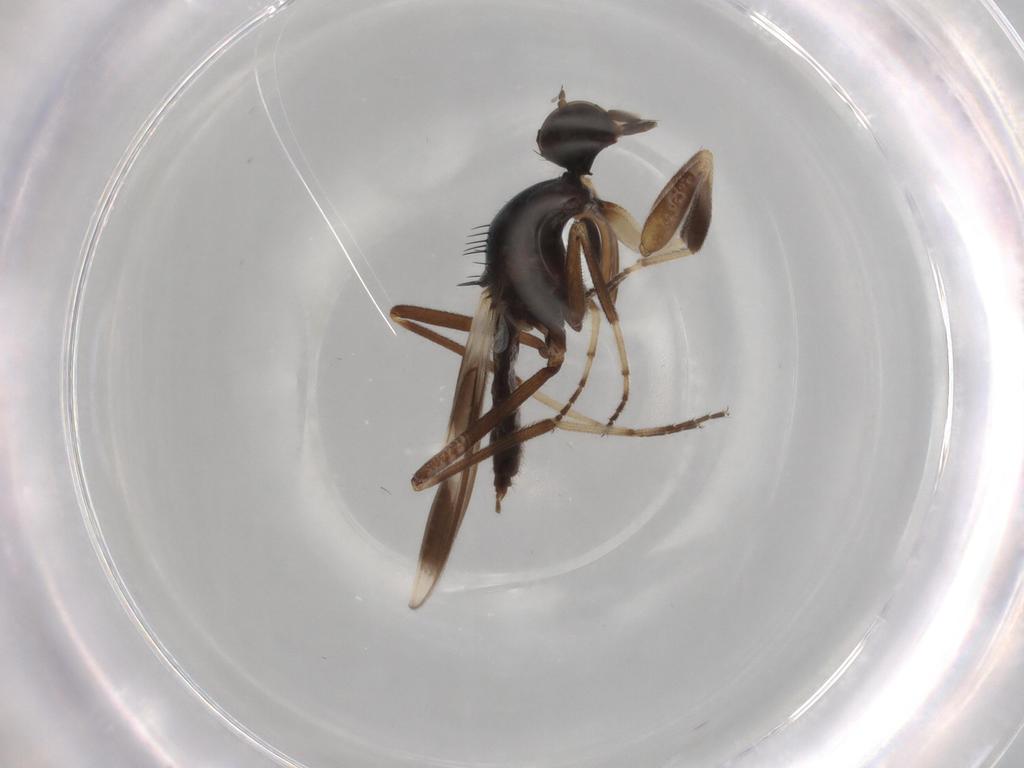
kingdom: Animalia
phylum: Arthropoda
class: Insecta
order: Diptera
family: Hybotidae
